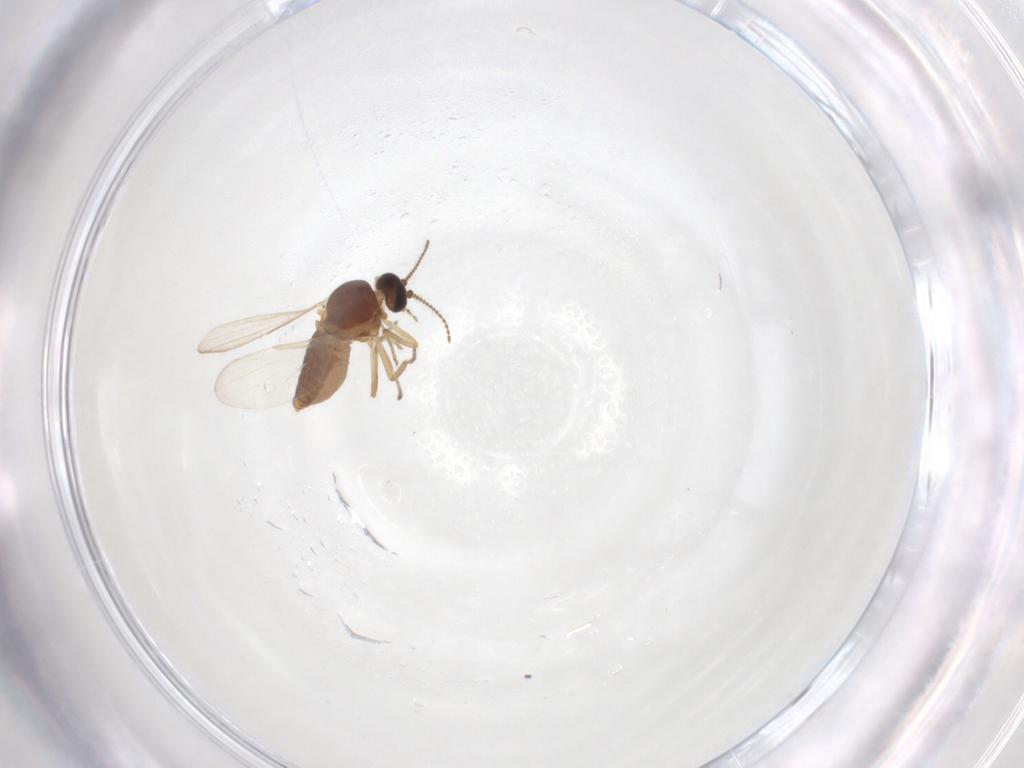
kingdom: Animalia
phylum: Arthropoda
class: Insecta
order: Diptera
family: Ceratopogonidae
